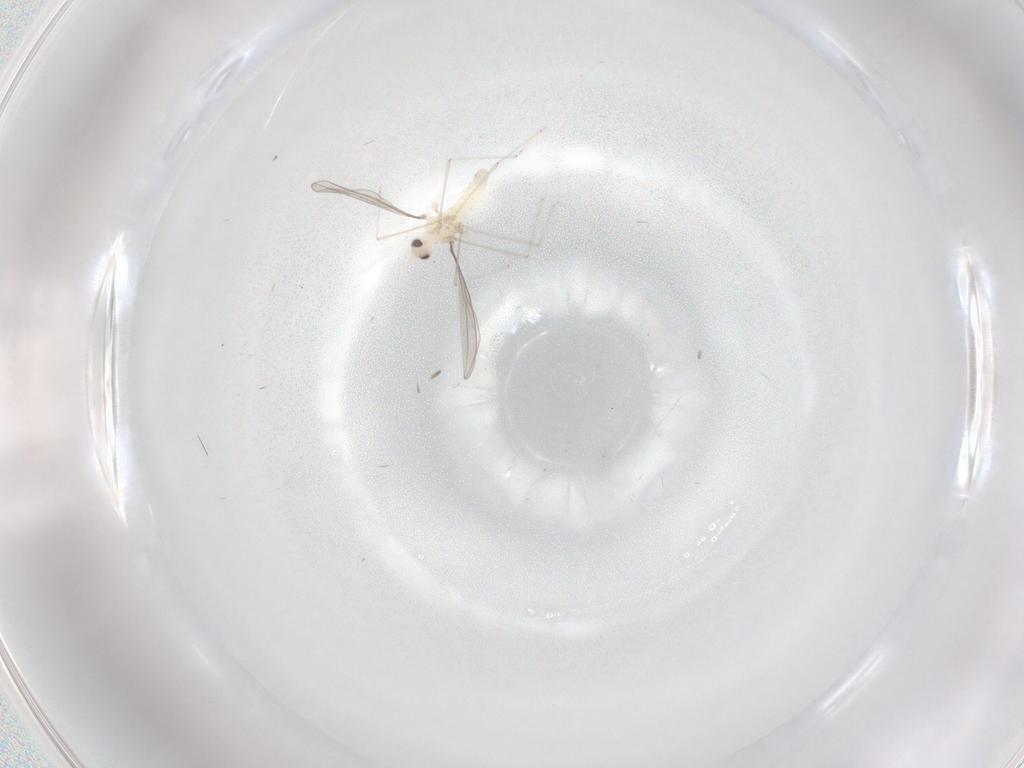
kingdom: Animalia
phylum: Arthropoda
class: Insecta
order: Diptera
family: Cecidomyiidae
